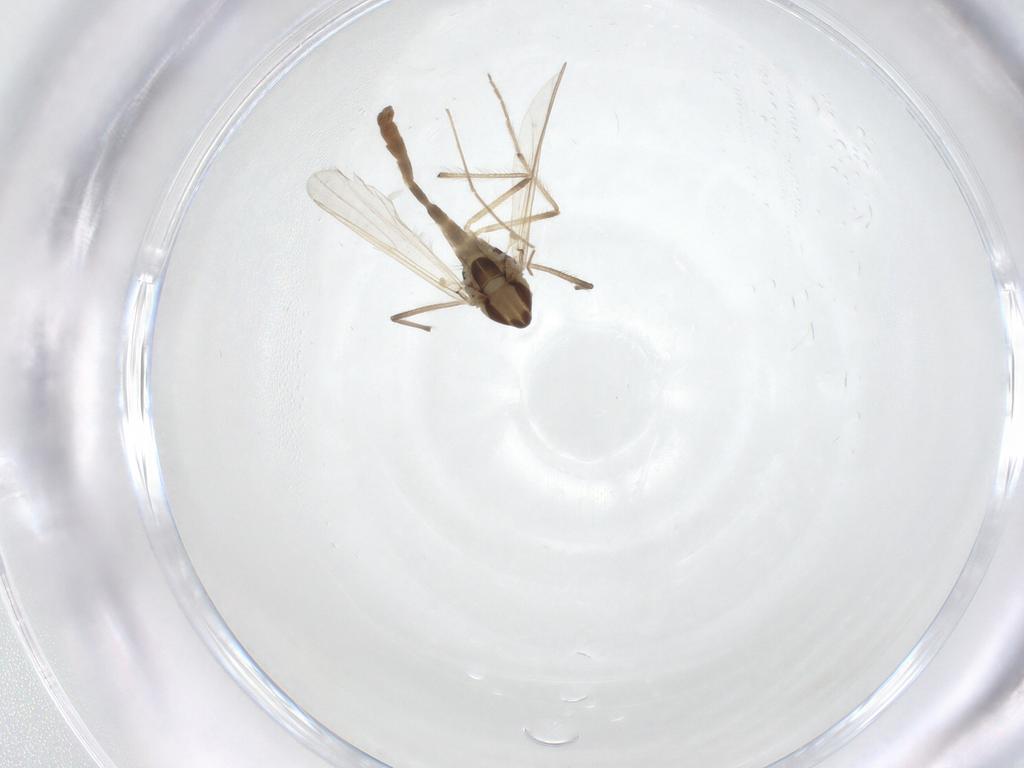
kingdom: Animalia
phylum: Arthropoda
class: Insecta
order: Diptera
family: Chironomidae
